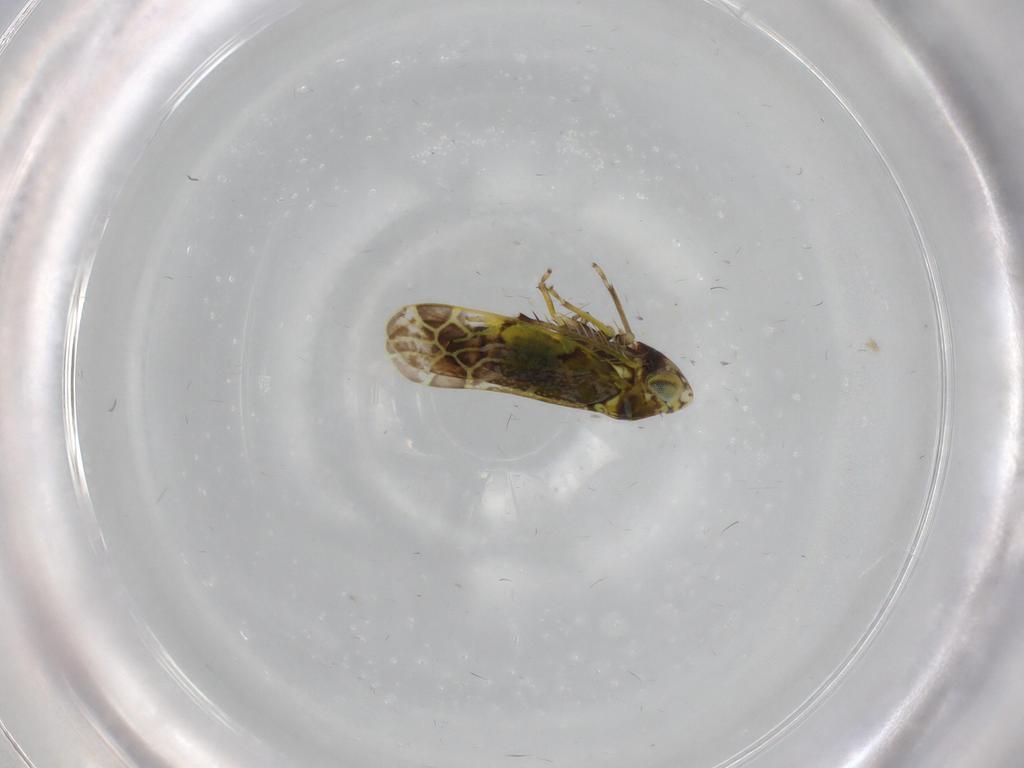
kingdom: Animalia
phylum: Arthropoda
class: Insecta
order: Hemiptera
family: Cicadellidae
